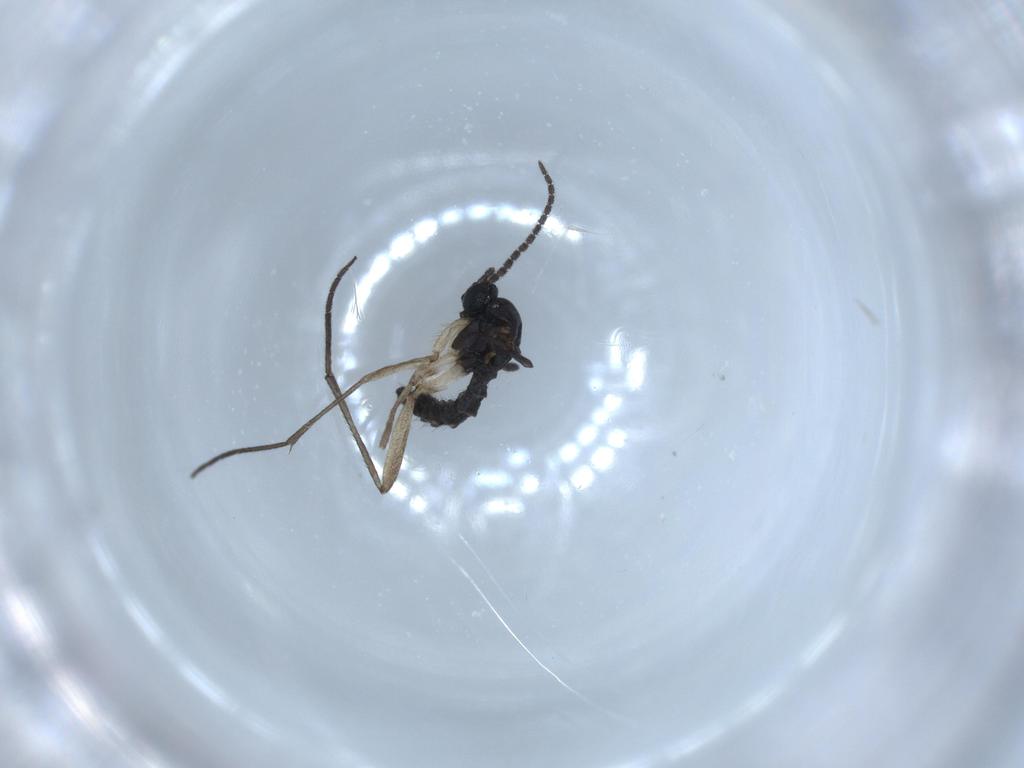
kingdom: Animalia
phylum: Arthropoda
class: Insecta
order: Diptera
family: Sciaridae
